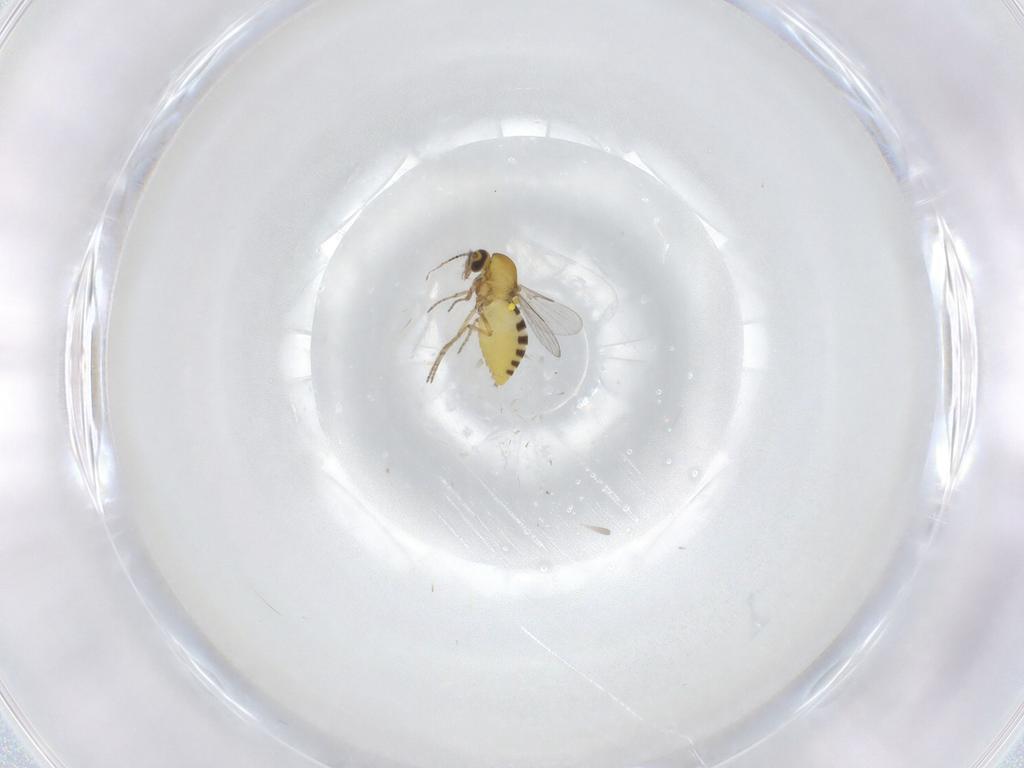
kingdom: Animalia
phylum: Arthropoda
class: Insecta
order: Diptera
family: Ceratopogonidae
